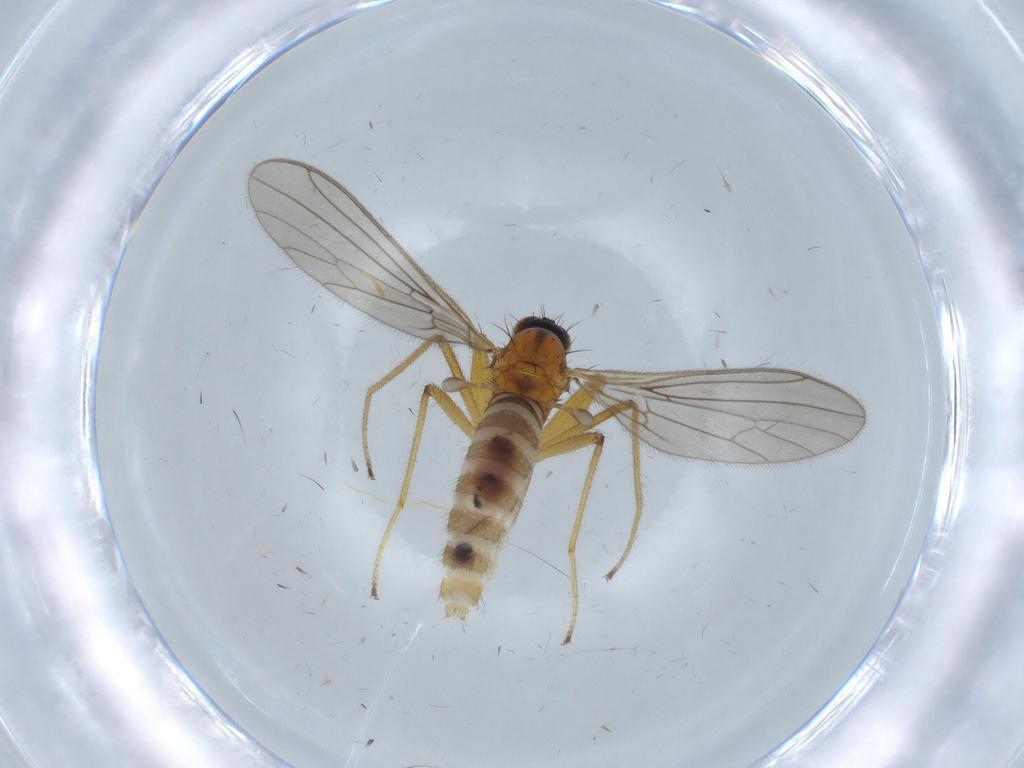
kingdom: Animalia
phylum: Arthropoda
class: Insecta
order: Diptera
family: Empididae
